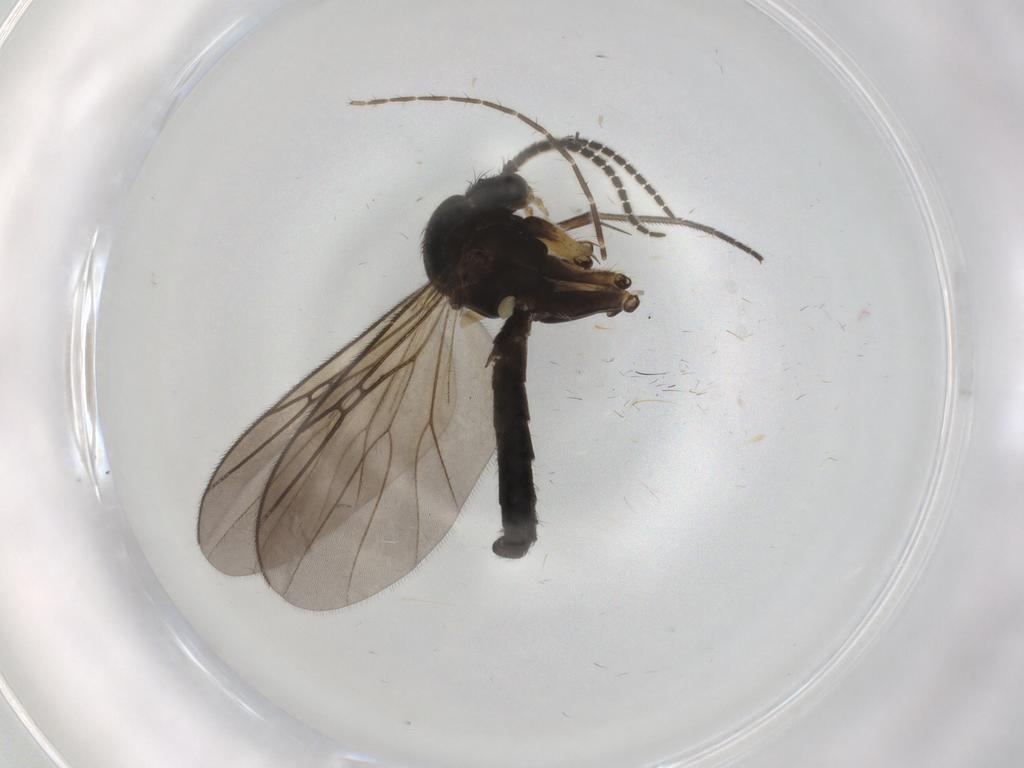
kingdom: Animalia
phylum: Arthropoda
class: Insecta
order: Diptera
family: Limoniidae
